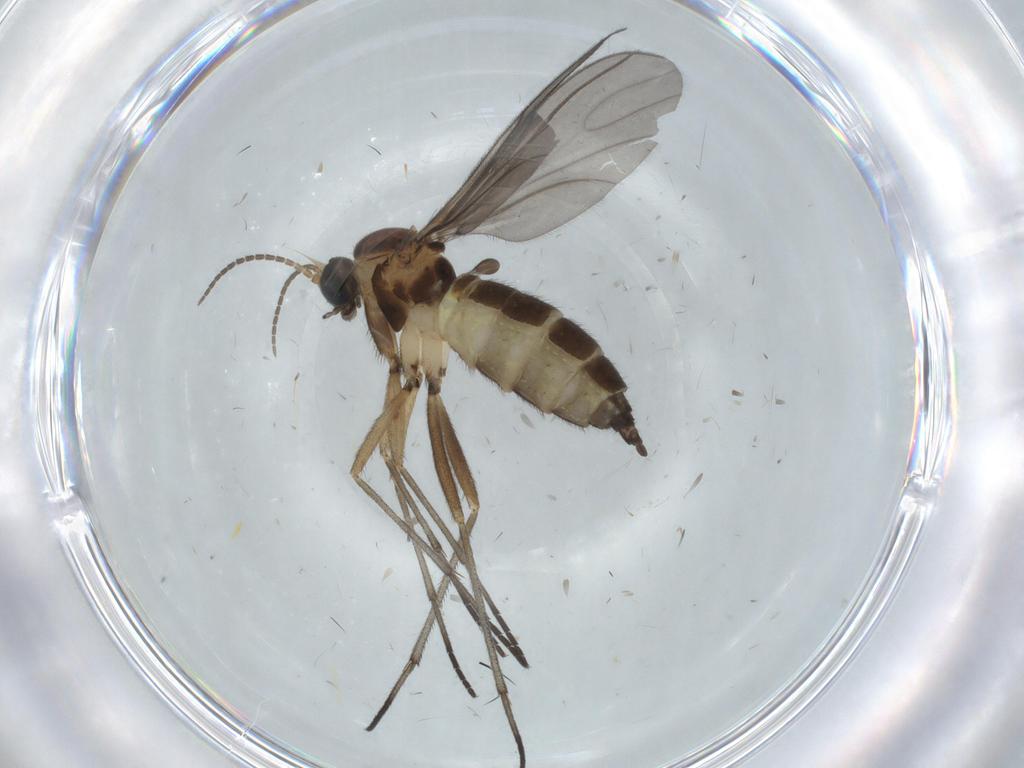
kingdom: Animalia
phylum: Arthropoda
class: Insecta
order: Diptera
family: Sciaridae
